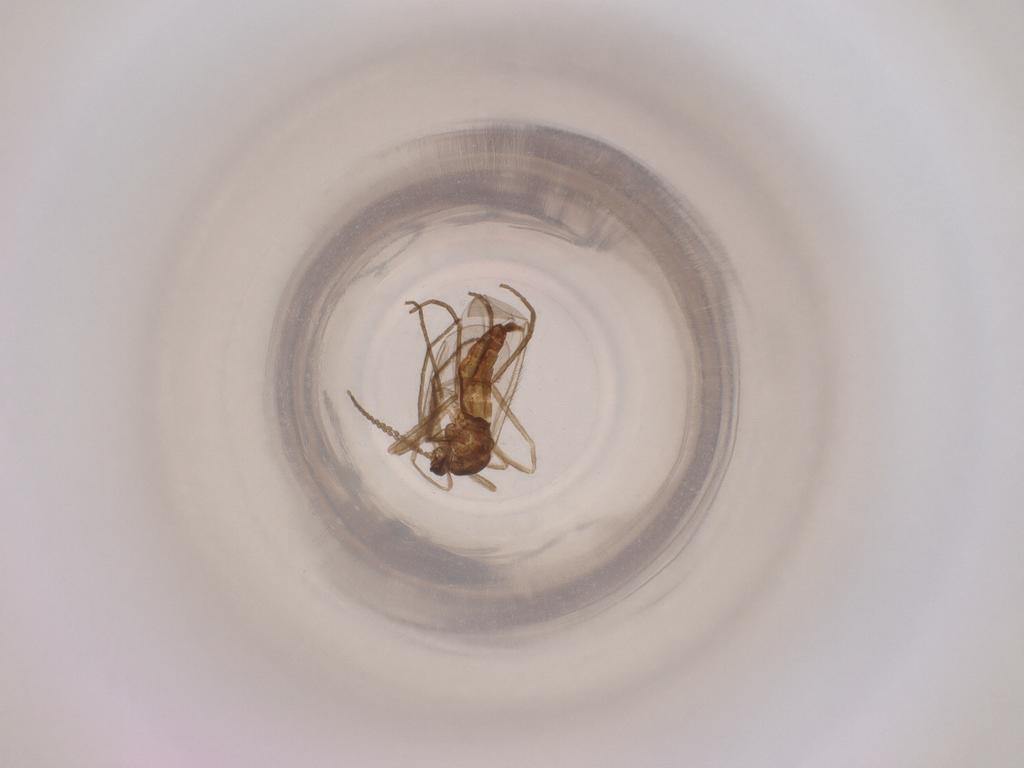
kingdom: Animalia
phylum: Arthropoda
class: Insecta
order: Diptera
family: Cecidomyiidae
